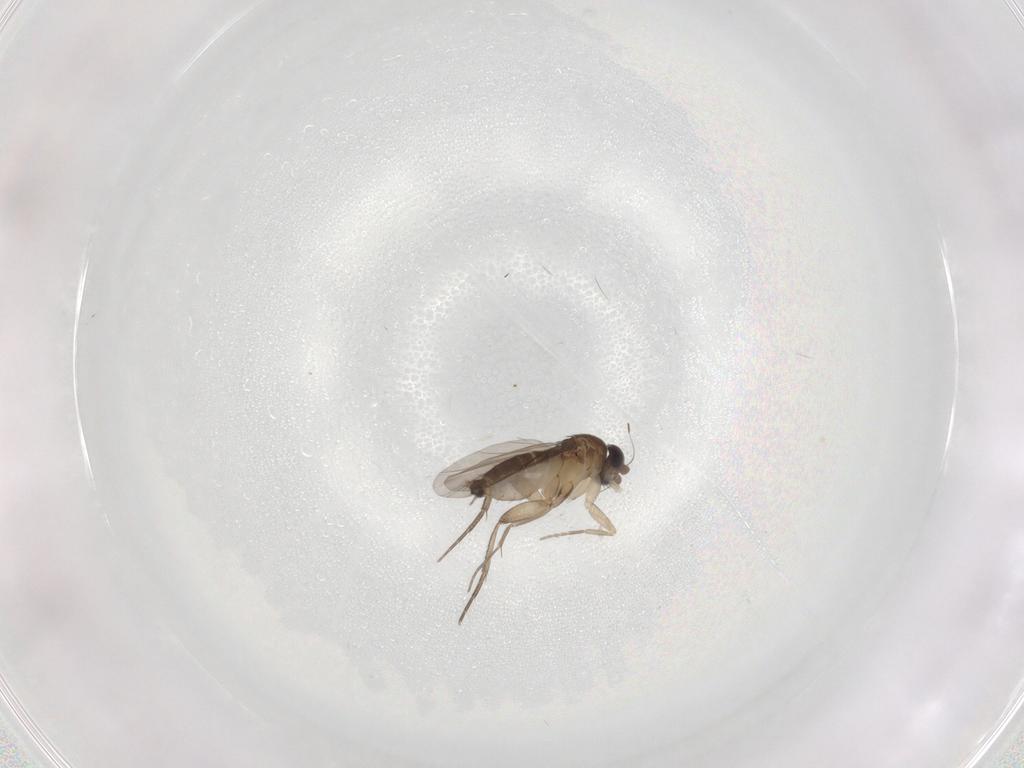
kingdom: Animalia
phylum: Arthropoda
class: Insecta
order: Diptera
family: Phoridae
